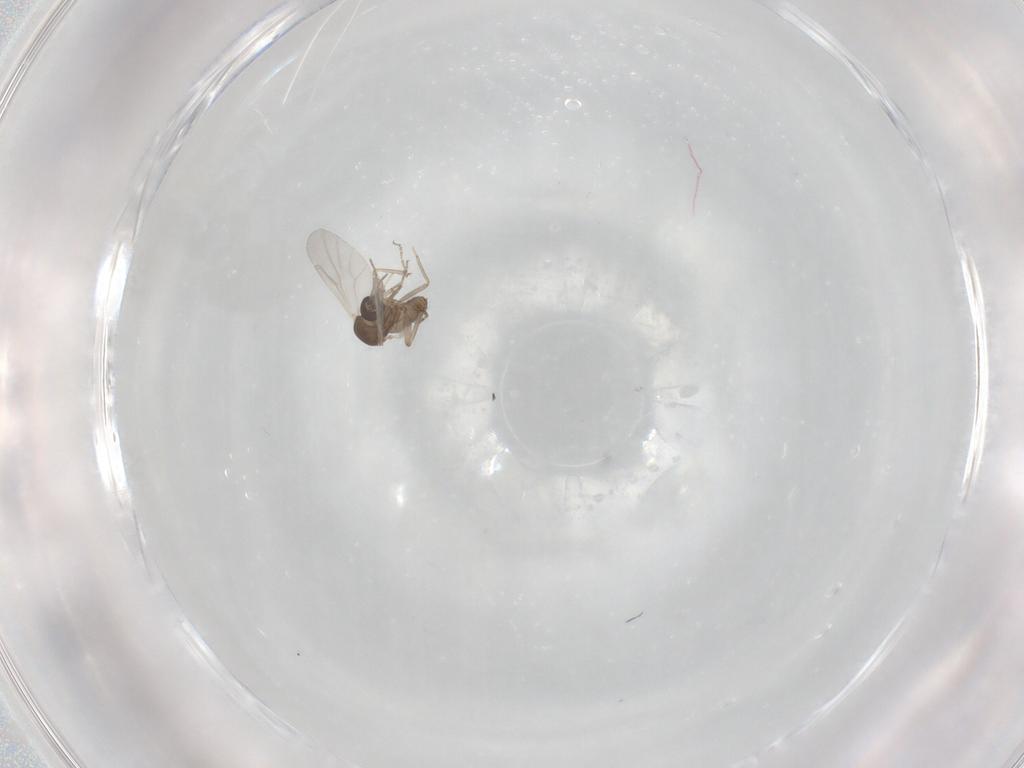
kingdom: Animalia
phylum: Arthropoda
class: Insecta
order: Diptera
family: Ceratopogonidae
